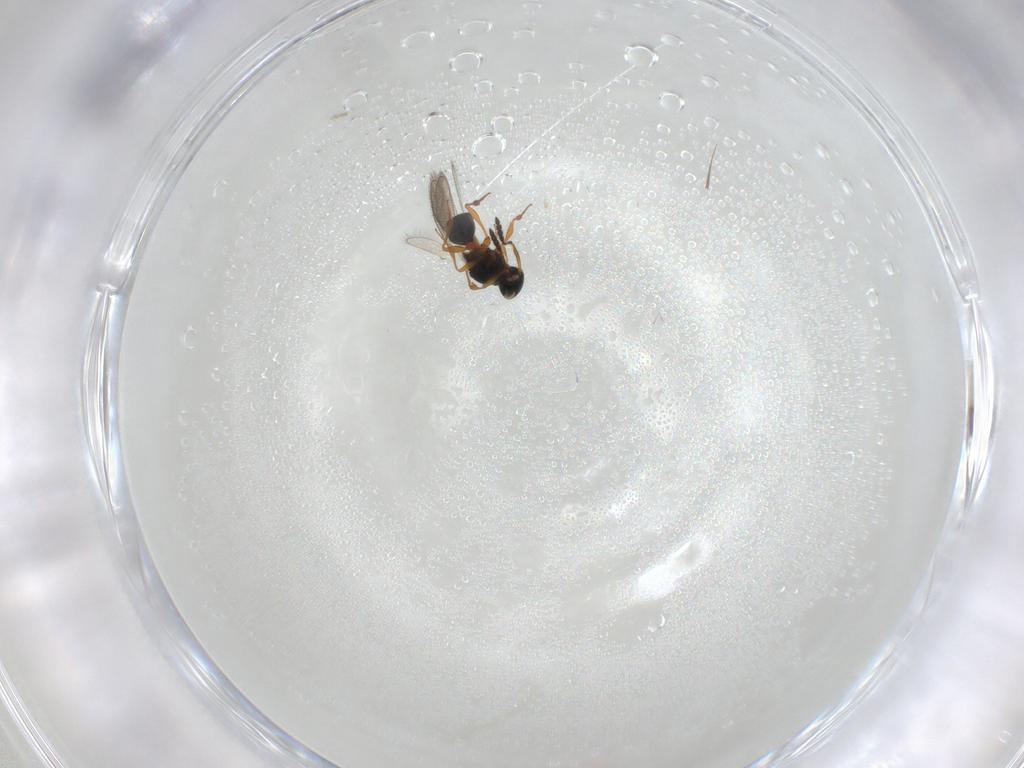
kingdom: Animalia
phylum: Arthropoda
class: Insecta
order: Hymenoptera
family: Platygastridae
